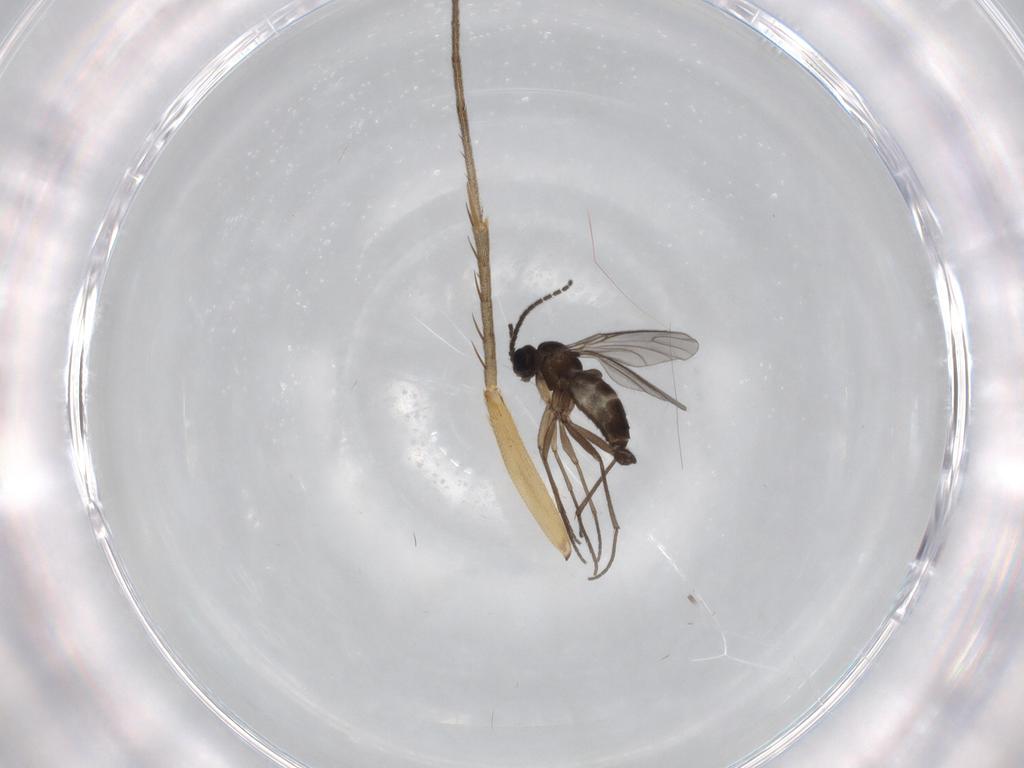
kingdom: Animalia
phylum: Arthropoda
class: Insecta
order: Diptera
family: Sciaridae
